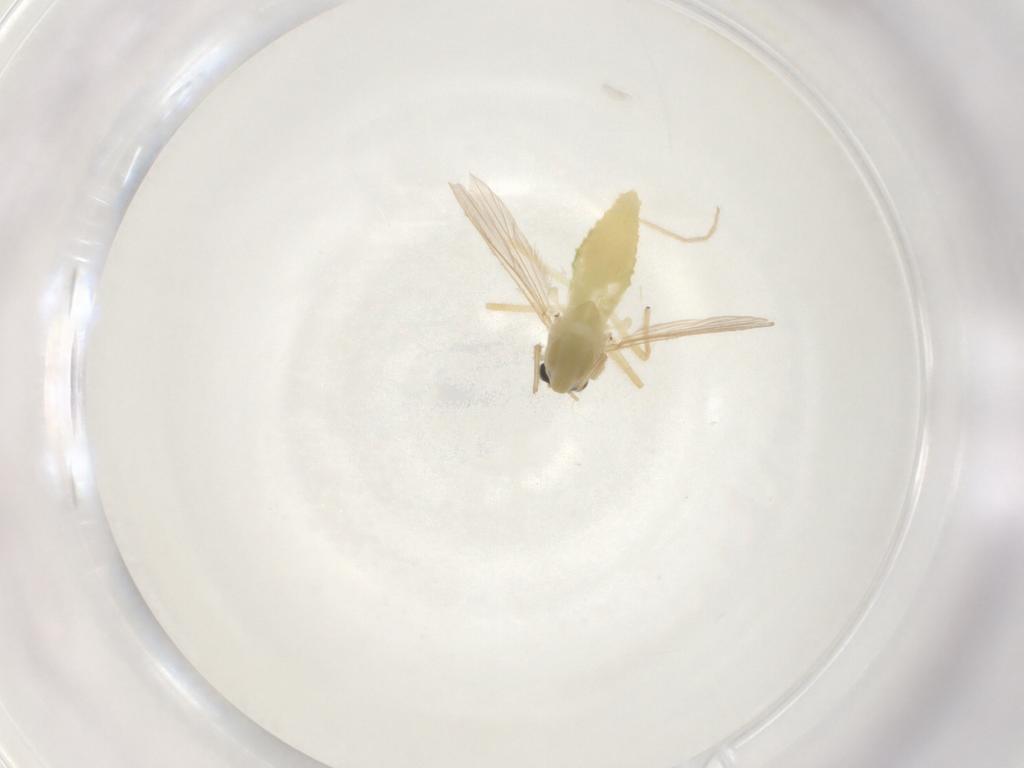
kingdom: Animalia
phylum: Arthropoda
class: Insecta
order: Diptera
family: Chironomidae
